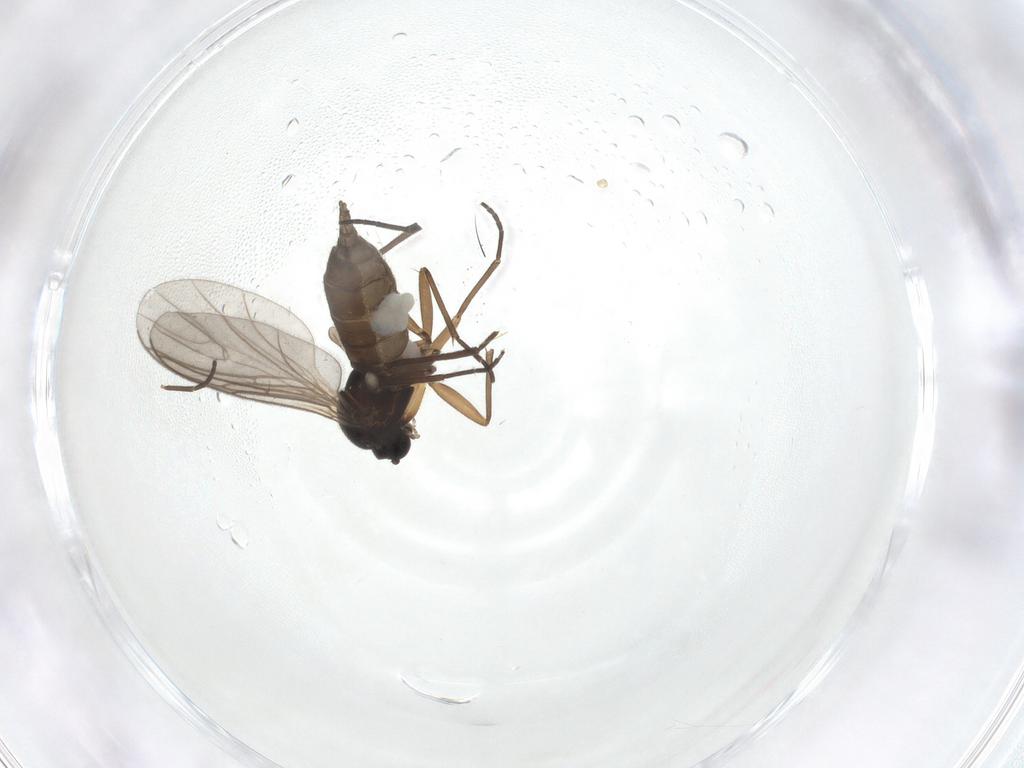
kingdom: Animalia
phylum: Arthropoda
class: Insecta
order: Diptera
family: Sciaridae
